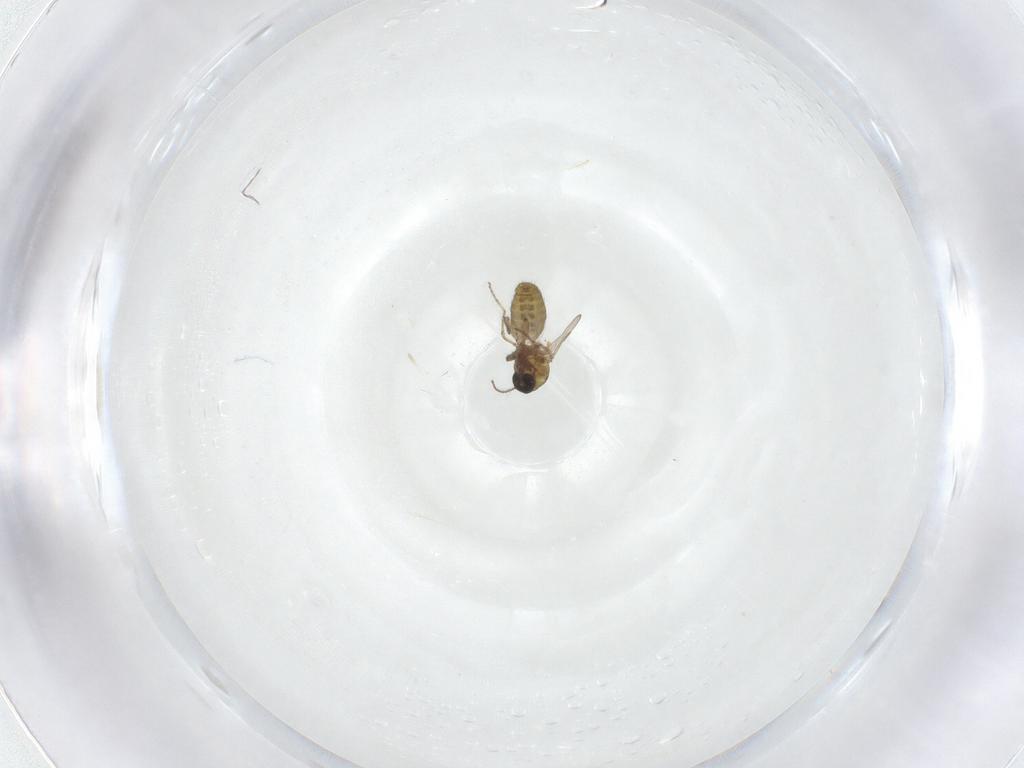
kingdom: Animalia
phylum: Arthropoda
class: Insecta
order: Diptera
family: Ceratopogonidae
